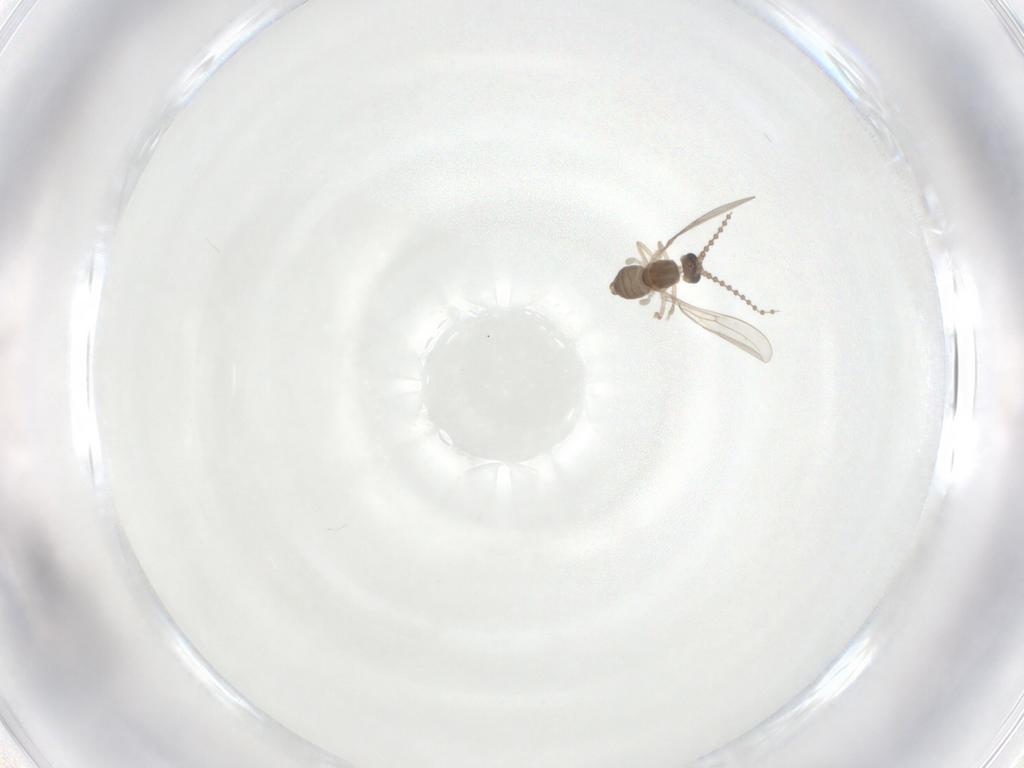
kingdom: Animalia
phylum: Arthropoda
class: Insecta
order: Diptera
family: Cecidomyiidae
